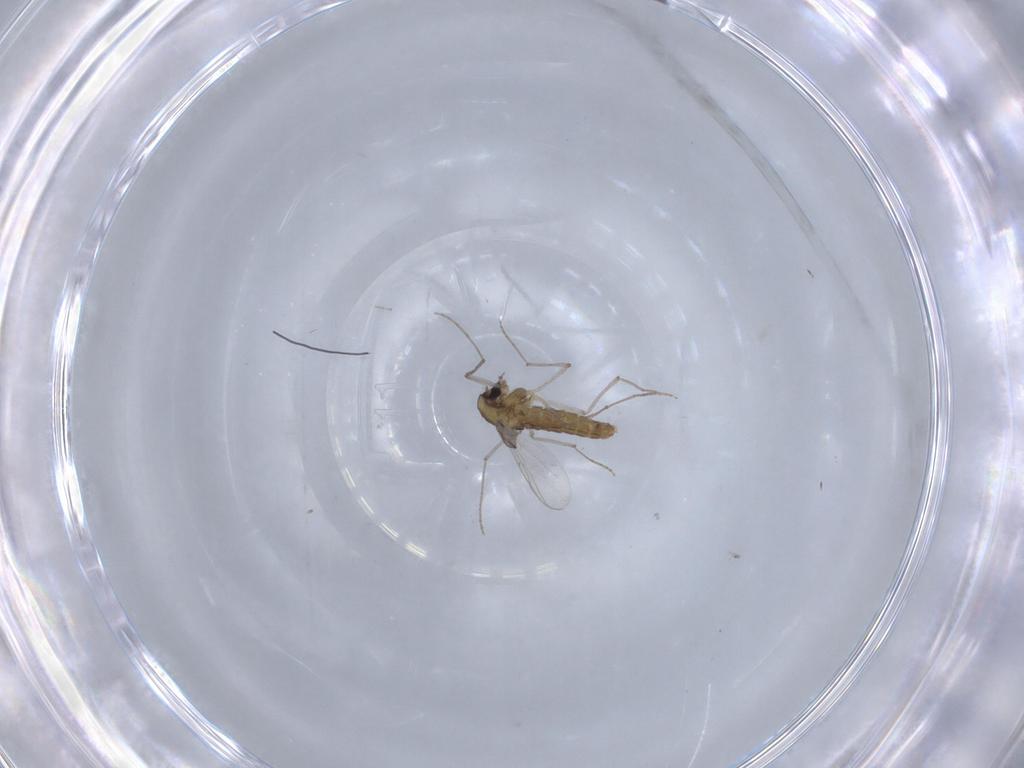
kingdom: Animalia
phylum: Arthropoda
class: Insecta
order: Diptera
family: Chironomidae
